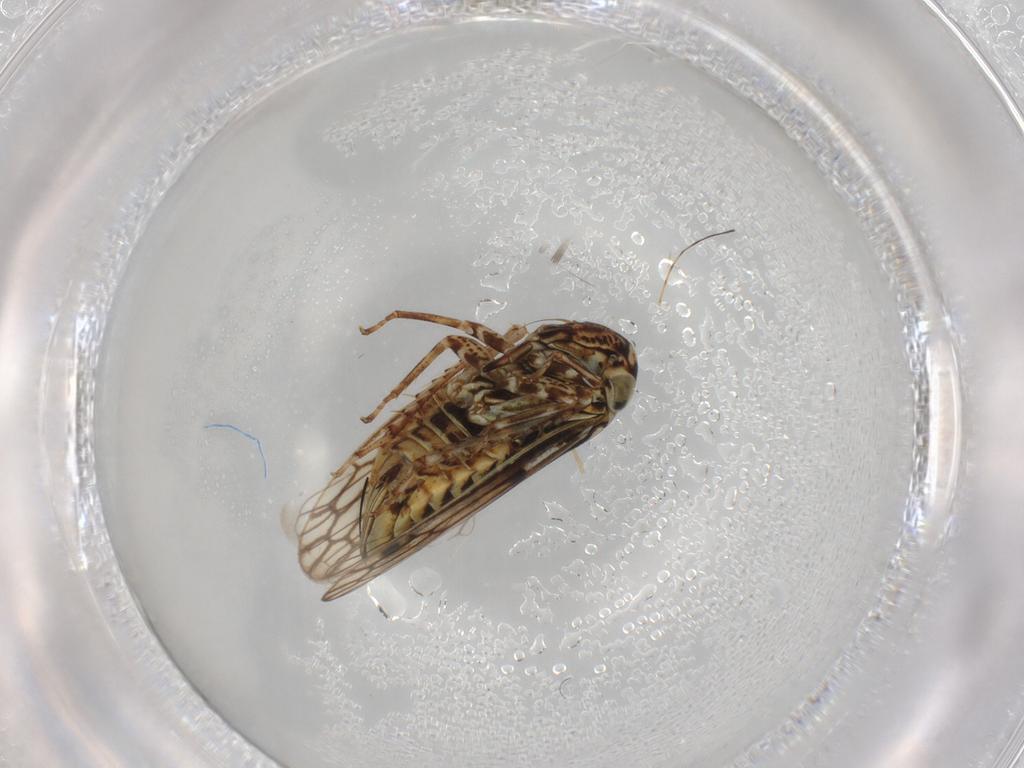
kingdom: Animalia
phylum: Arthropoda
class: Insecta
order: Hemiptera
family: Cicadellidae
